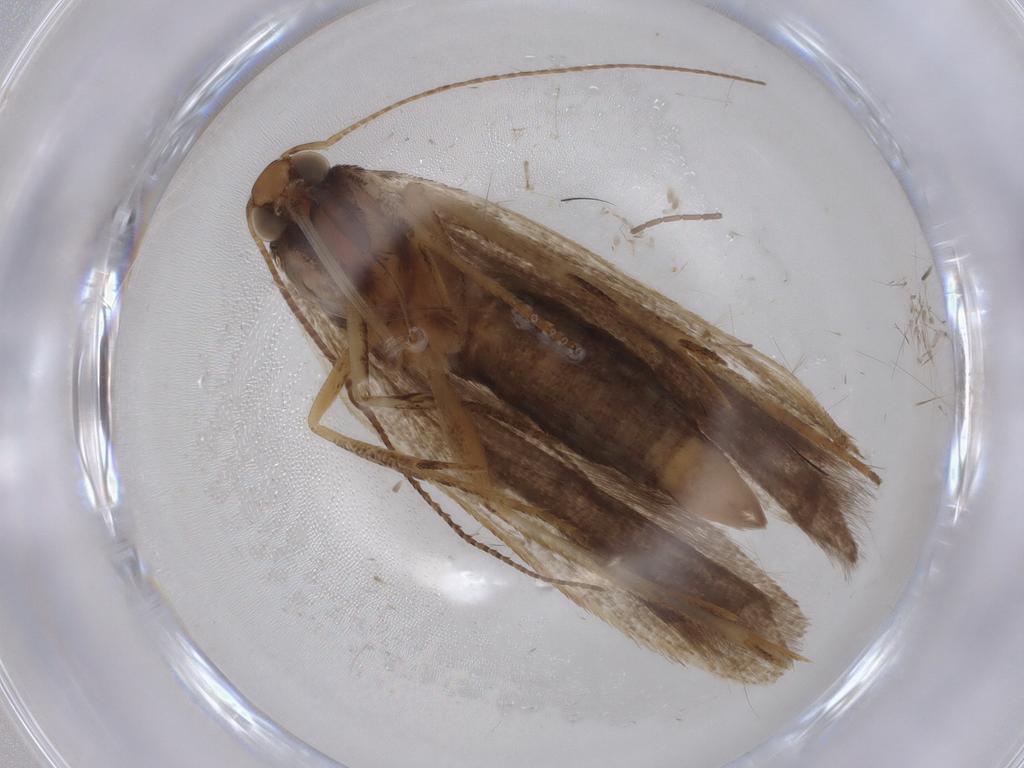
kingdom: Animalia
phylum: Arthropoda
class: Insecta
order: Lepidoptera
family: Gelechiidae
